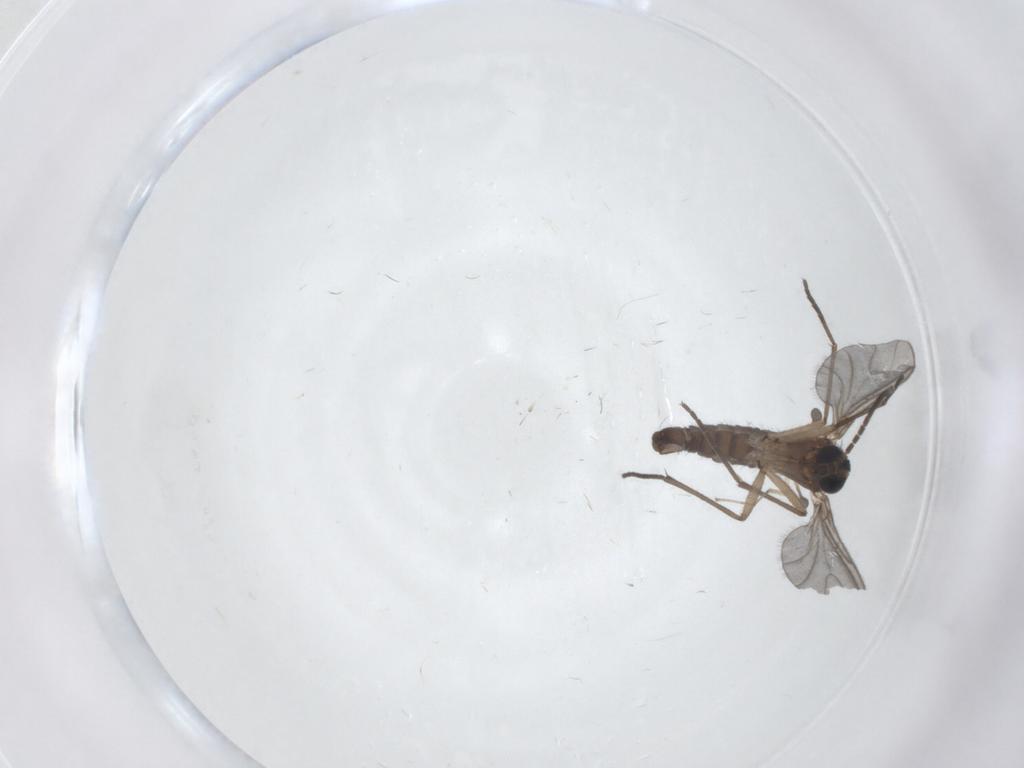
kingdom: Animalia
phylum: Arthropoda
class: Insecta
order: Diptera
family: Cecidomyiidae
